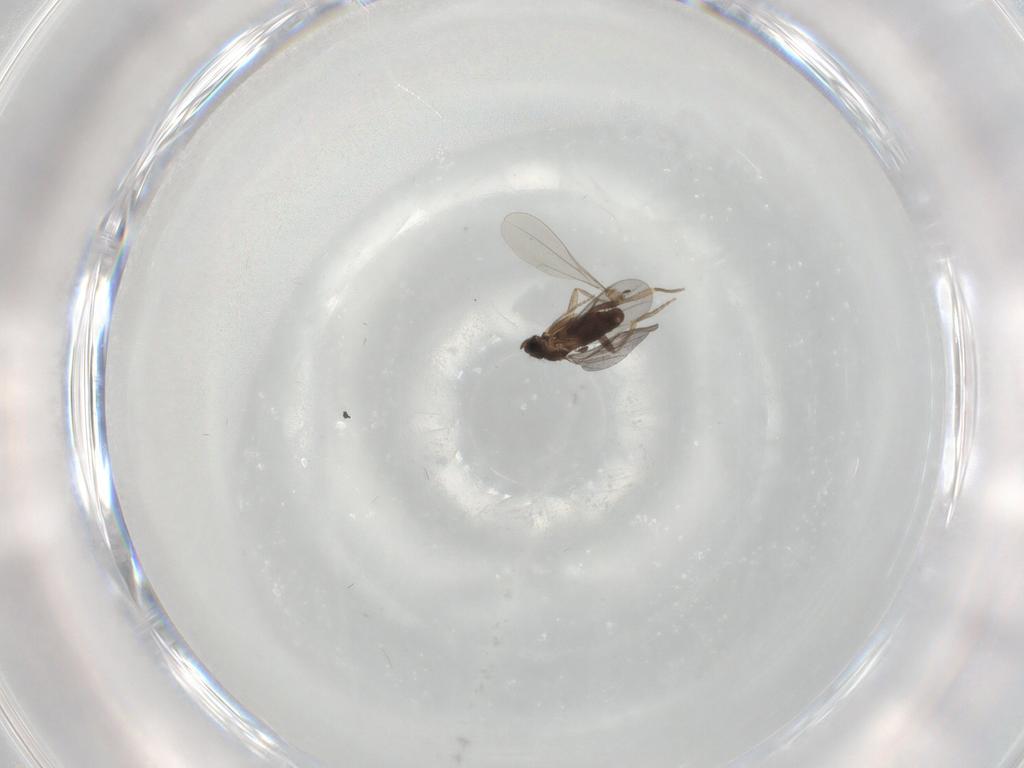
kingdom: Animalia
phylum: Arthropoda
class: Insecta
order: Diptera
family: Cecidomyiidae
